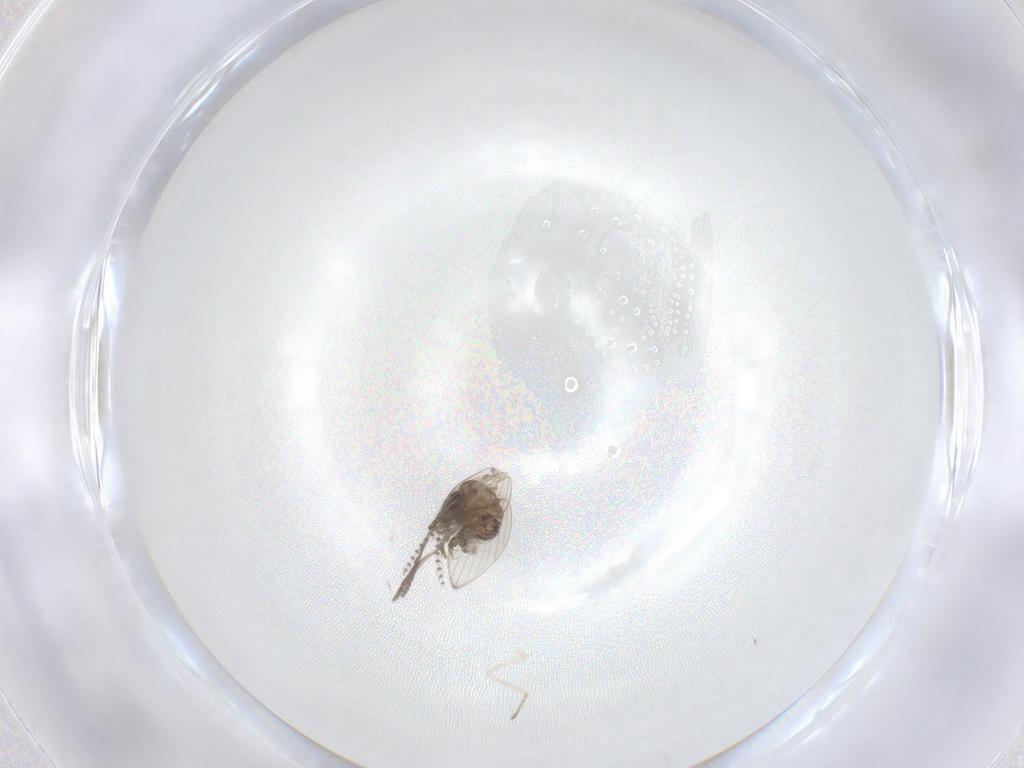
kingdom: Animalia
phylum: Arthropoda
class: Insecta
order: Diptera
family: Psychodidae
